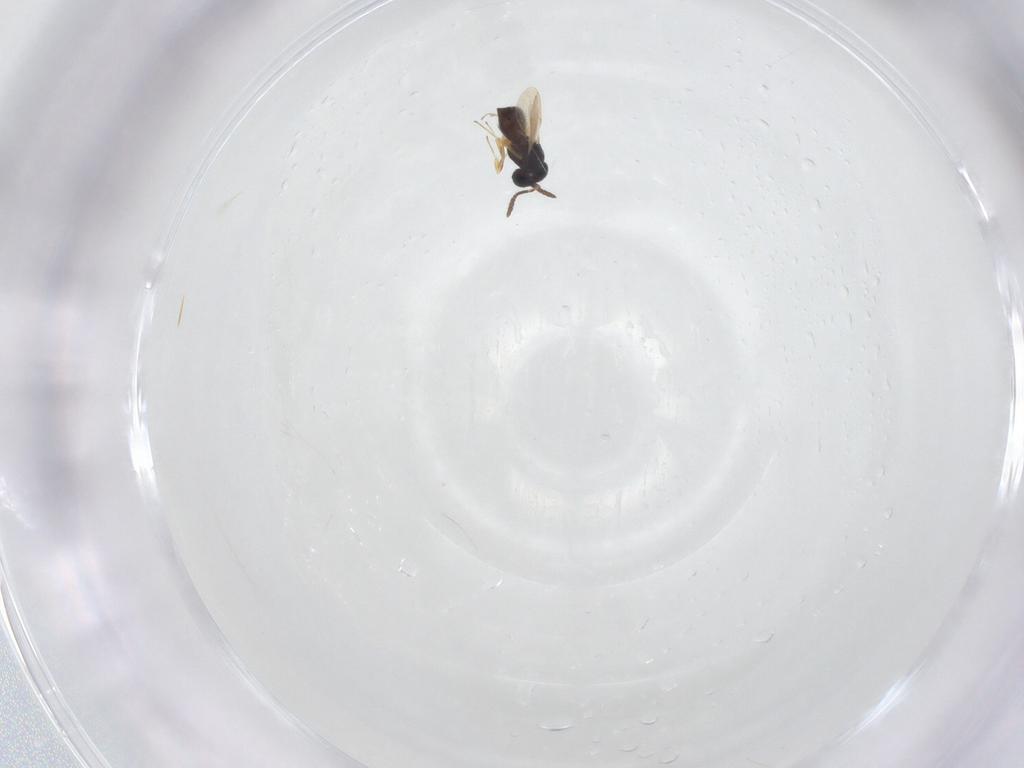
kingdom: Animalia
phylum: Arthropoda
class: Insecta
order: Hymenoptera
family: Scelionidae
